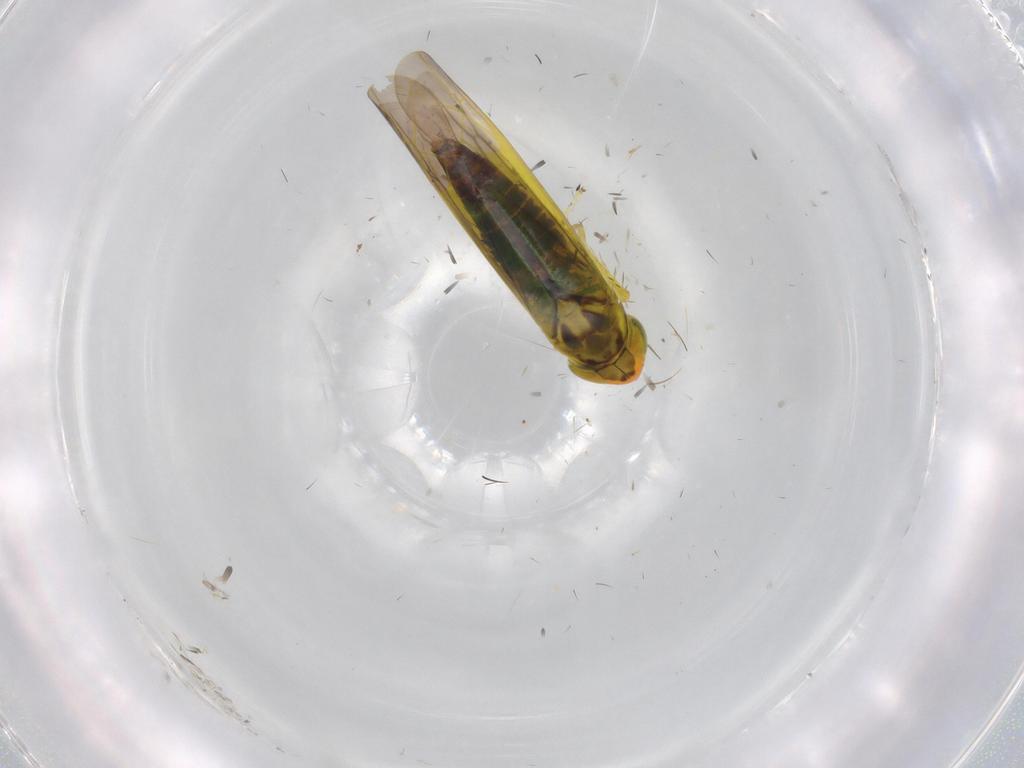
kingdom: Animalia
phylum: Arthropoda
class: Insecta
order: Hemiptera
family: Cicadellidae
